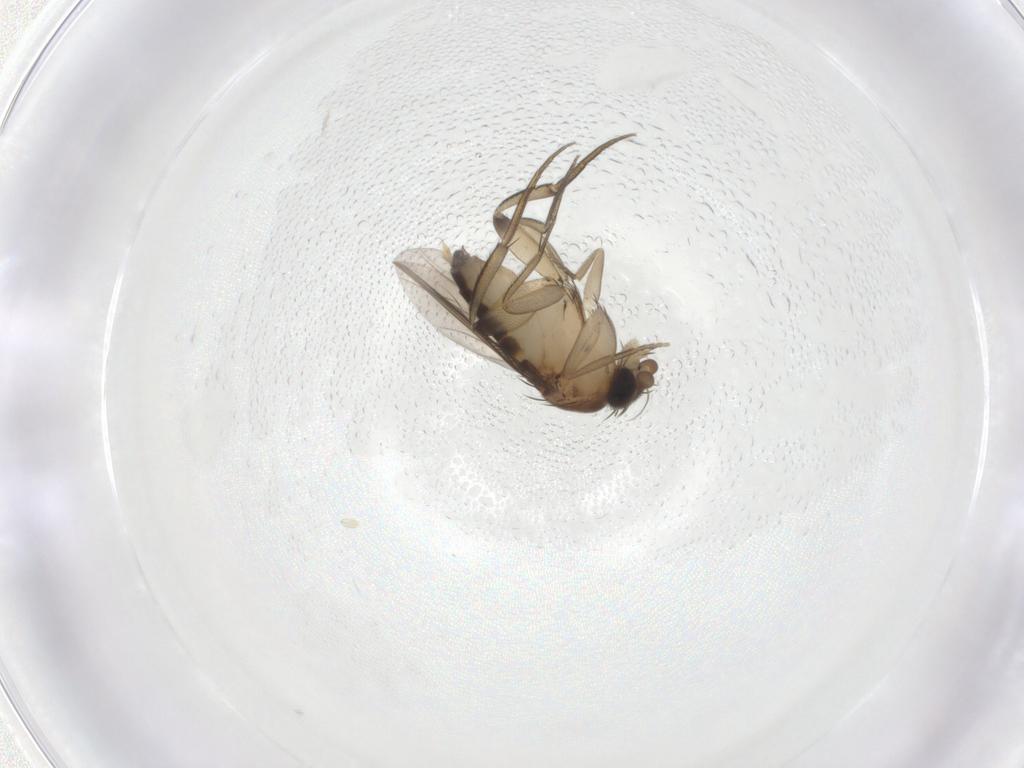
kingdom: Animalia
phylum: Arthropoda
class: Insecta
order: Diptera
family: Phoridae
